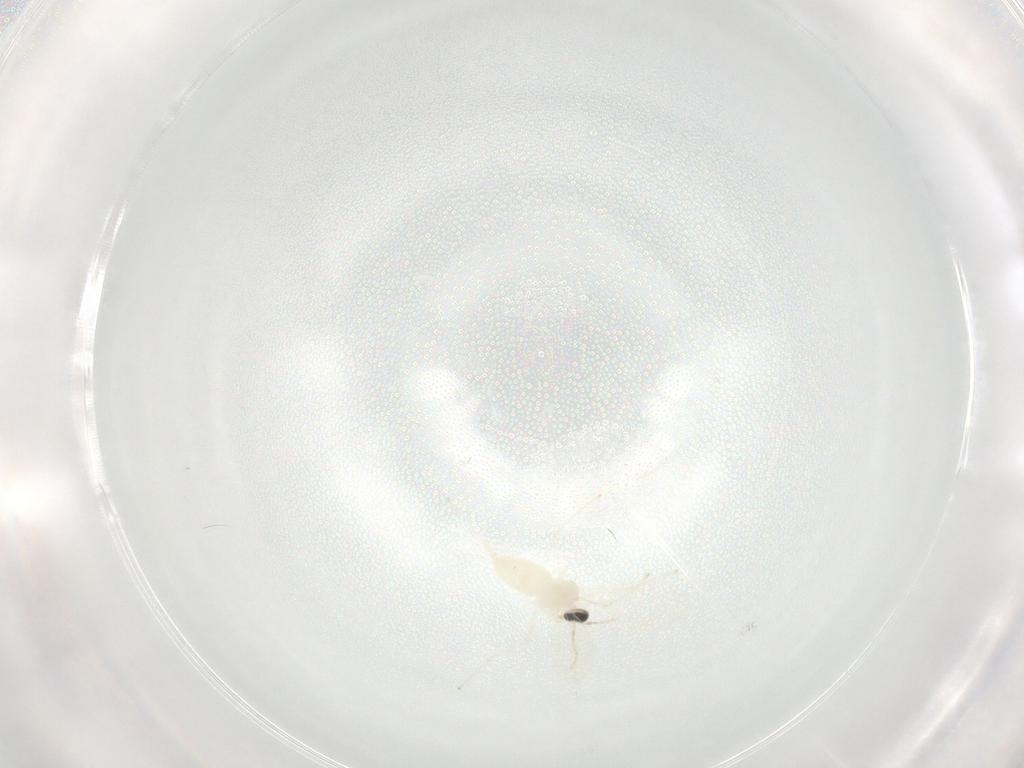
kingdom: Animalia
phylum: Arthropoda
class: Insecta
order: Diptera
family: Cecidomyiidae
